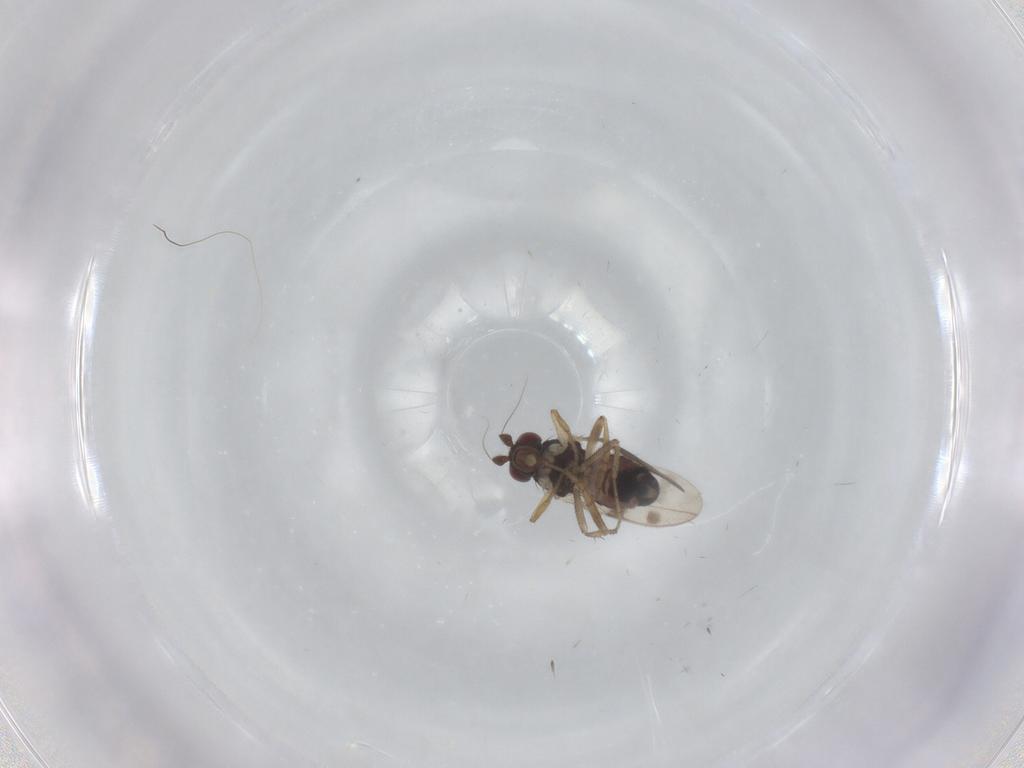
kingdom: Animalia
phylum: Arthropoda
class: Insecta
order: Diptera
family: Sphaeroceridae
